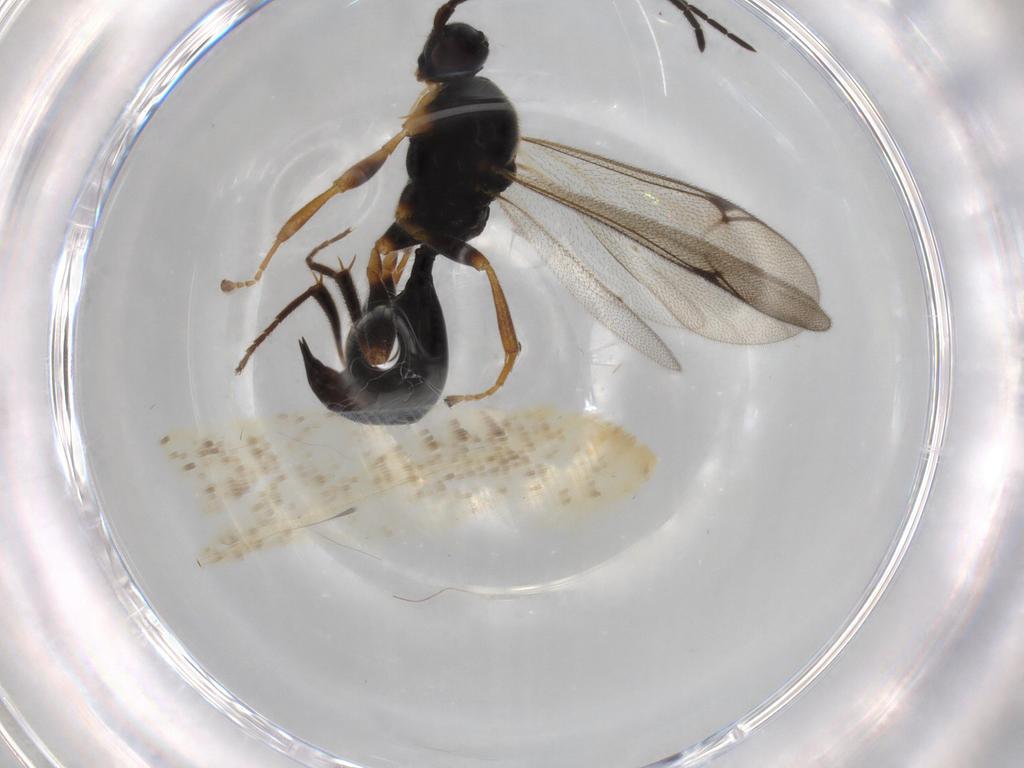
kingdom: Animalia
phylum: Arthropoda
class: Insecta
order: Hymenoptera
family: Proctotrupidae
